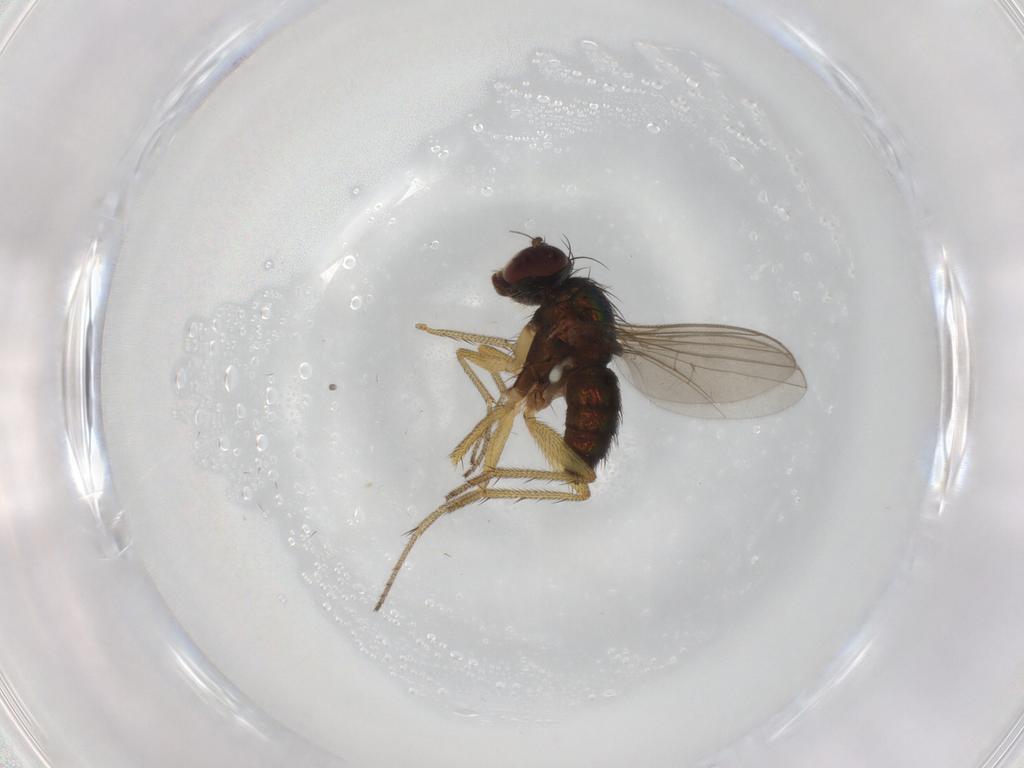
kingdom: Animalia
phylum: Arthropoda
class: Insecta
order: Diptera
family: Dolichopodidae
